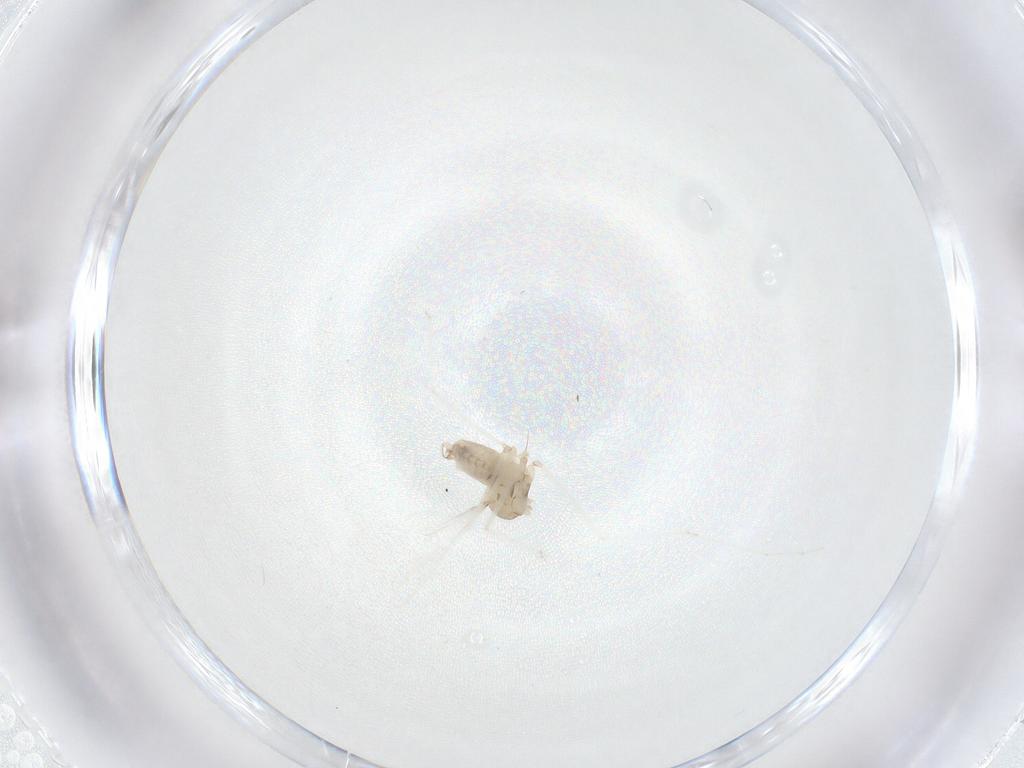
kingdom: Animalia
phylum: Arthropoda
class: Insecta
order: Diptera
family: Cecidomyiidae
